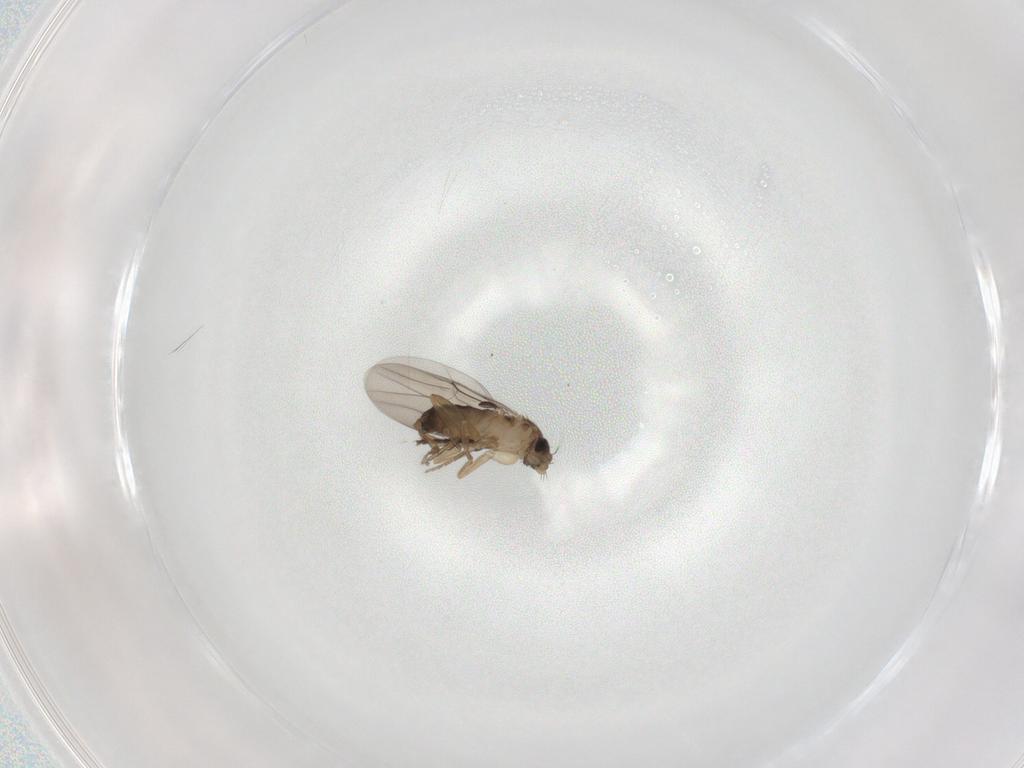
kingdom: Animalia
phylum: Arthropoda
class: Insecta
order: Diptera
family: Phoridae
